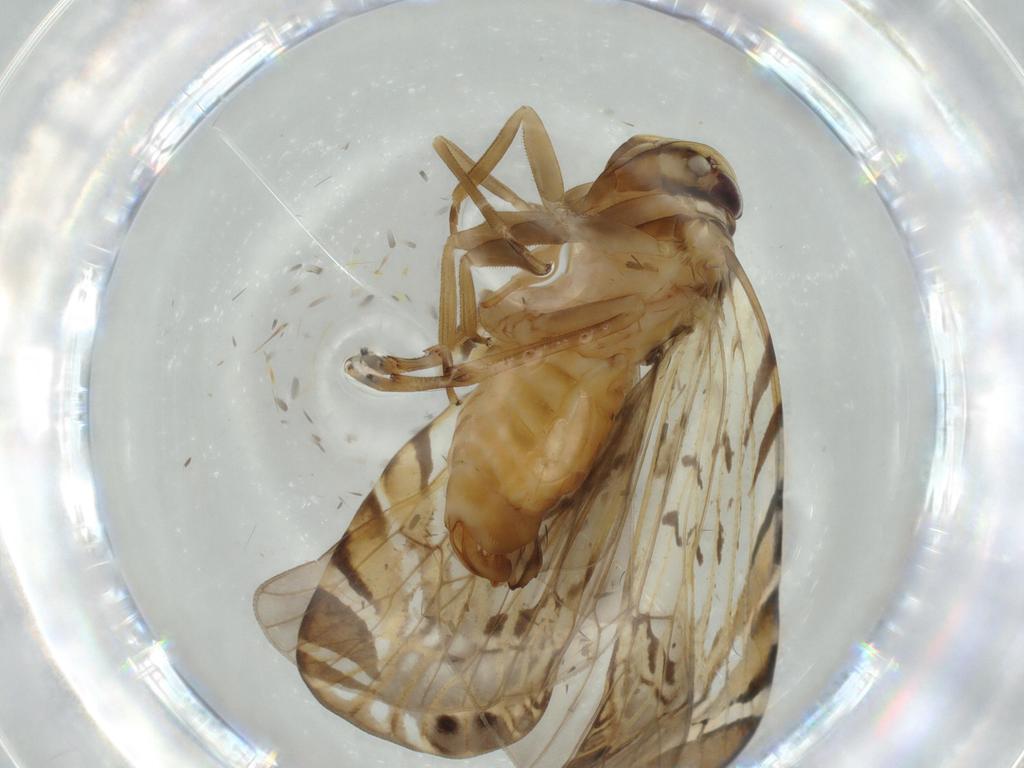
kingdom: Animalia
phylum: Arthropoda
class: Insecta
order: Hemiptera
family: Cixiidae
